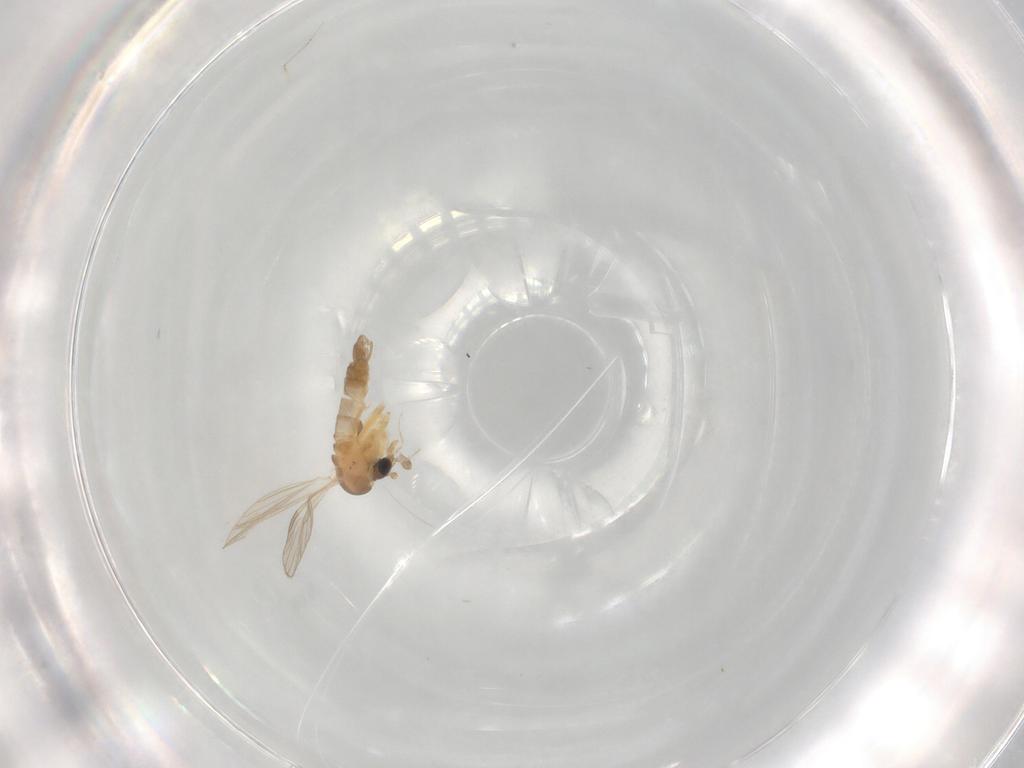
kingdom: Animalia
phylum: Arthropoda
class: Insecta
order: Diptera
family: Psychodidae
